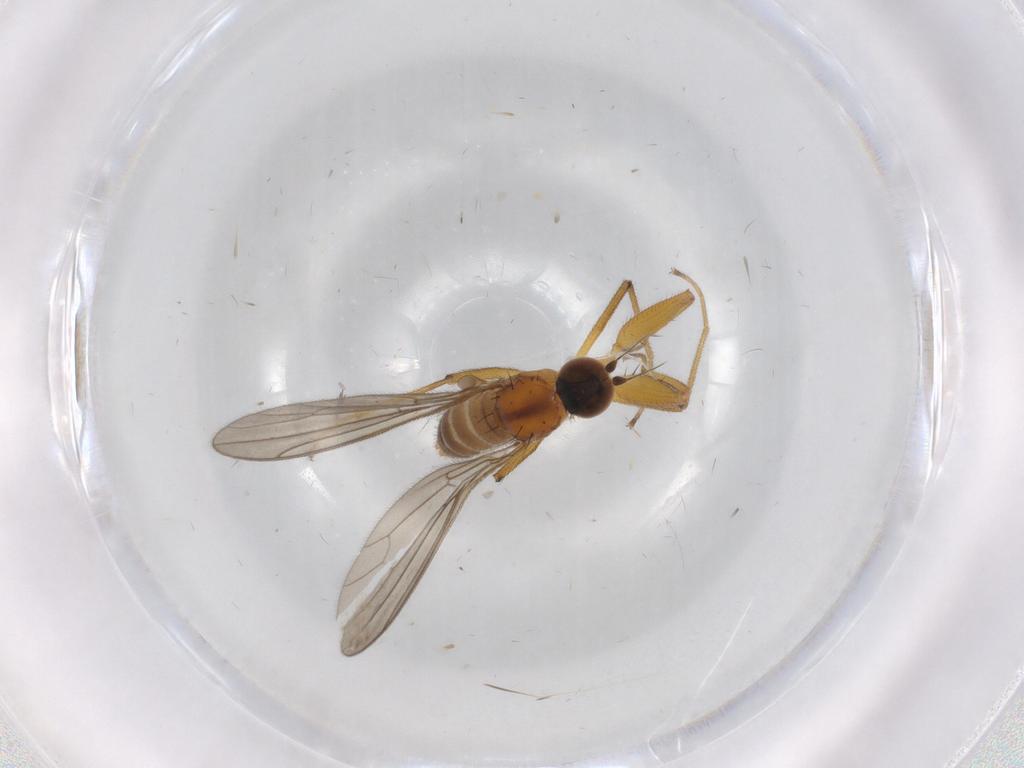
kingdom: Animalia
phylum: Arthropoda
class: Insecta
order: Diptera
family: Empididae
